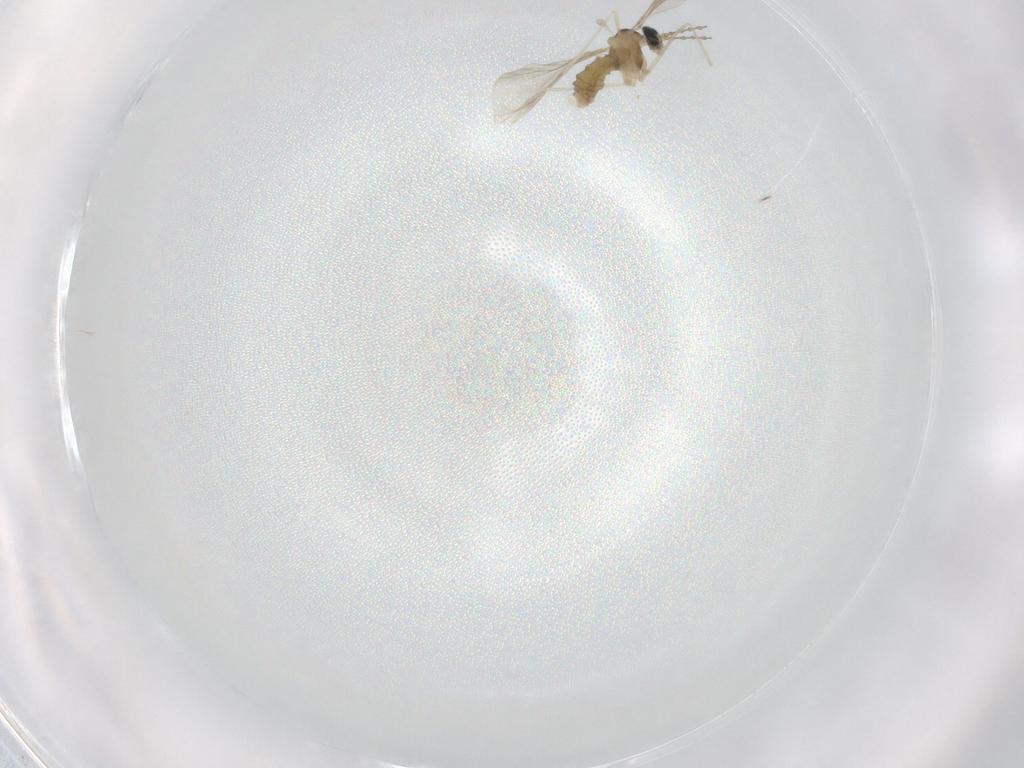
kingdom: Animalia
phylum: Arthropoda
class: Insecta
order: Diptera
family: Cecidomyiidae
